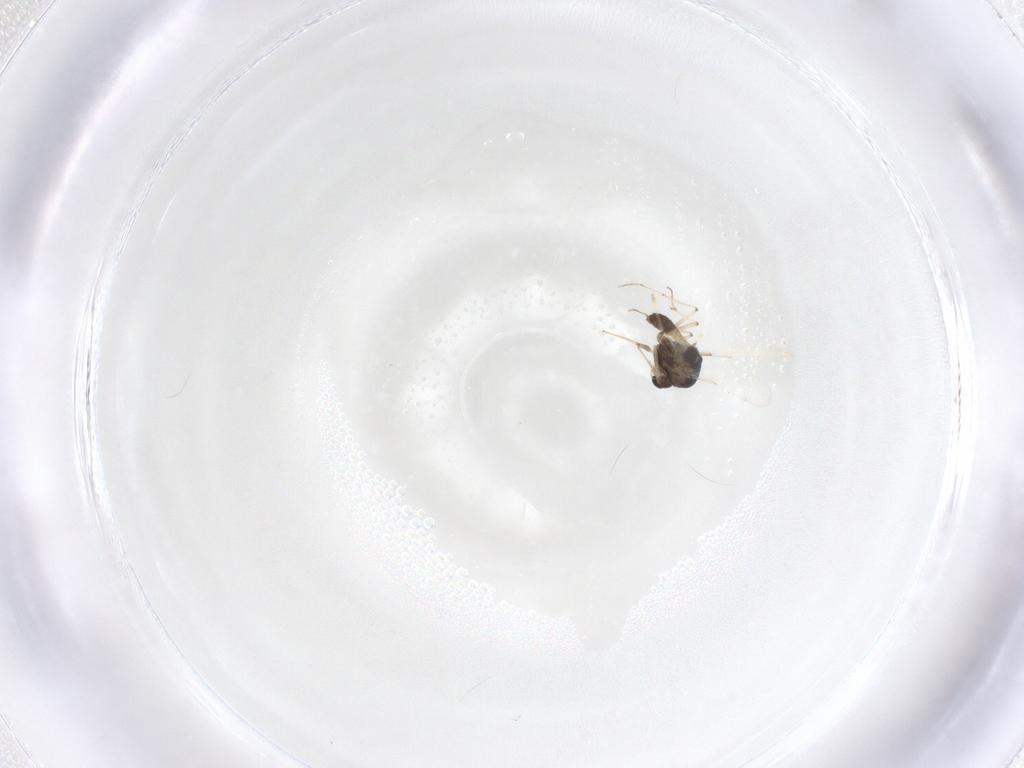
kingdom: Animalia
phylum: Arthropoda
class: Insecta
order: Diptera
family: Chironomidae
